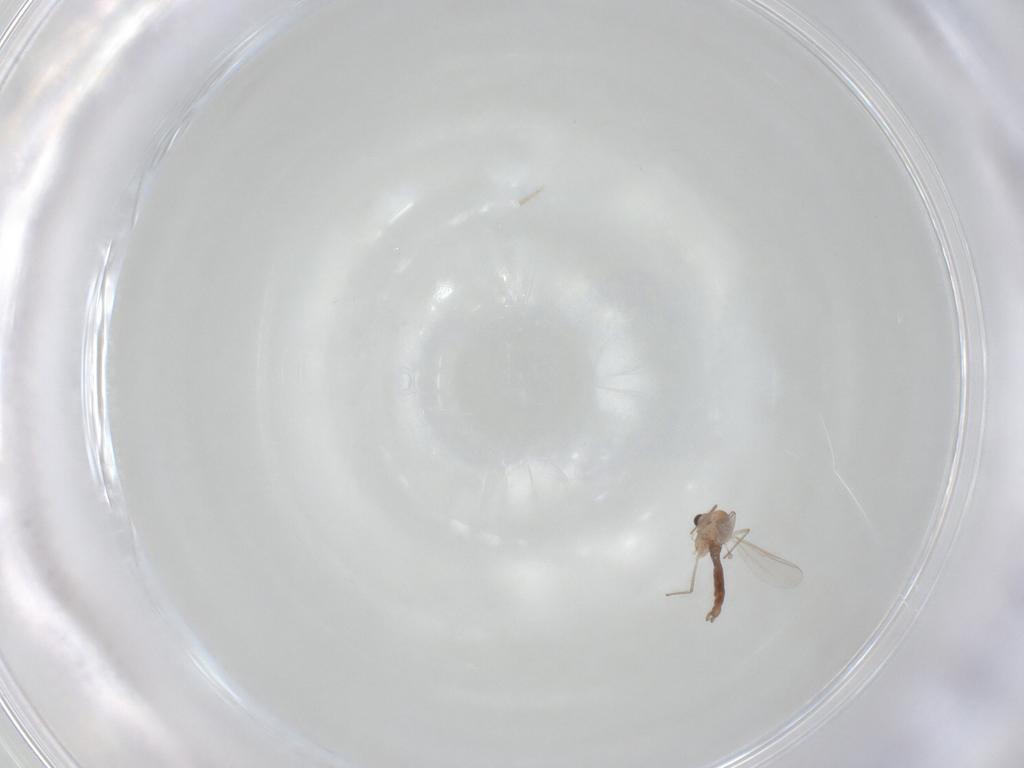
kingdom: Animalia
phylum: Arthropoda
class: Insecta
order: Diptera
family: Chironomidae
